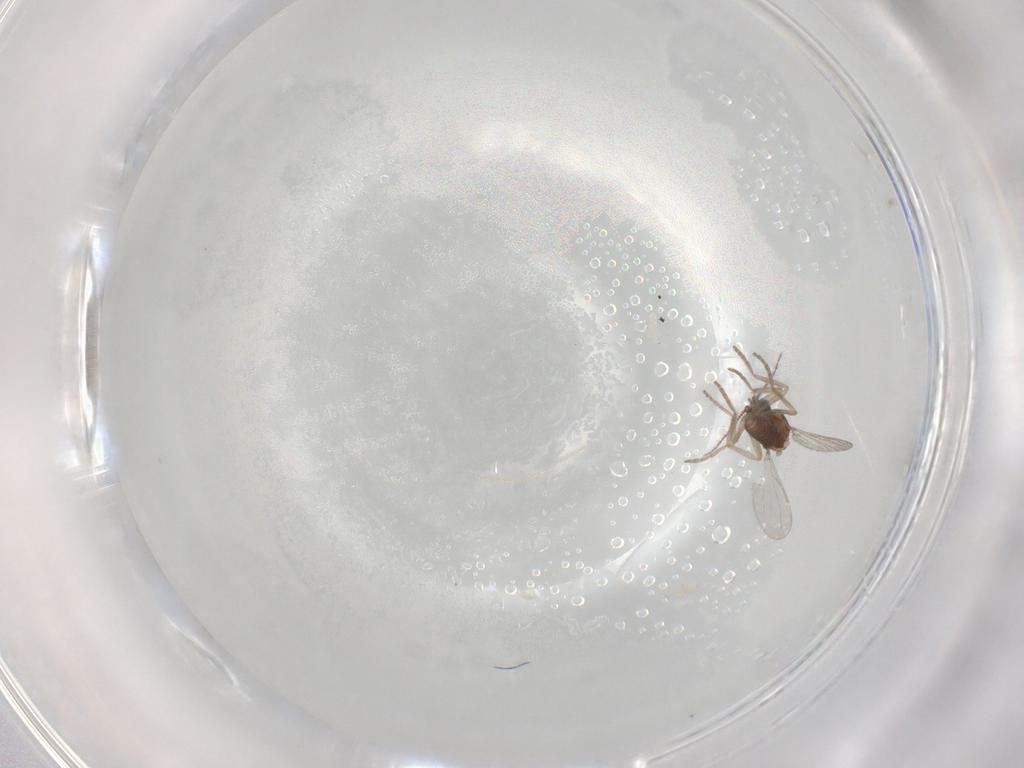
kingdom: Animalia
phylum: Arthropoda
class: Insecta
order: Diptera
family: Ceratopogonidae
